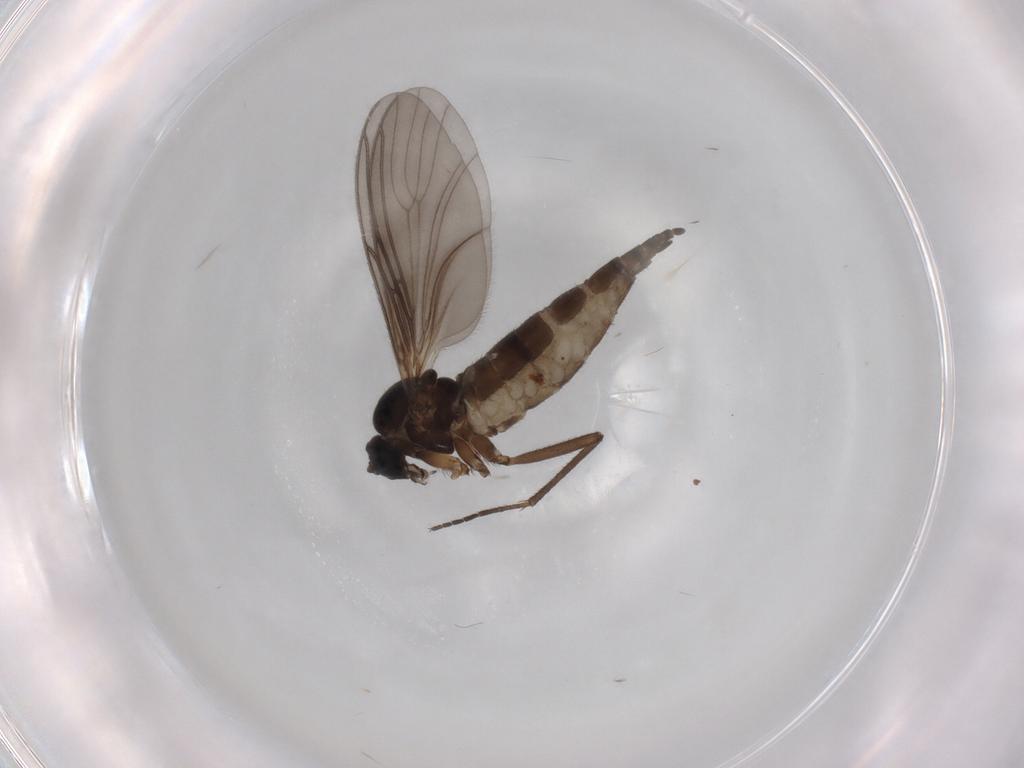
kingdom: Animalia
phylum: Arthropoda
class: Insecta
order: Diptera
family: Sciaridae
